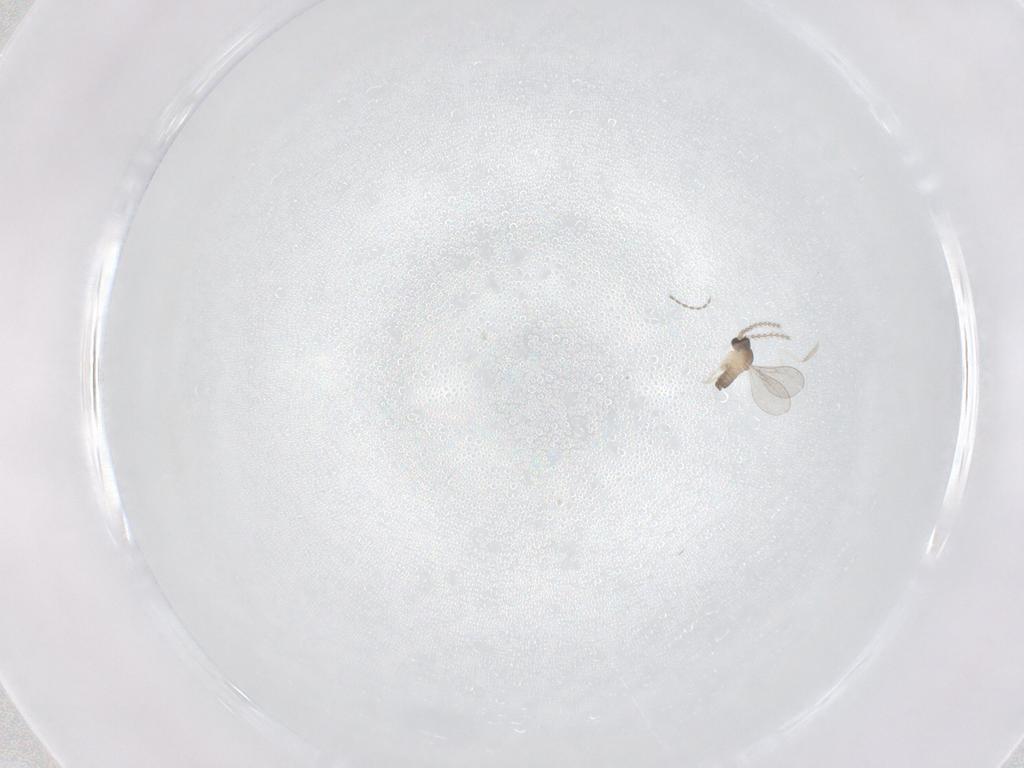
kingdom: Animalia
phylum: Arthropoda
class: Insecta
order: Diptera
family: Cecidomyiidae
